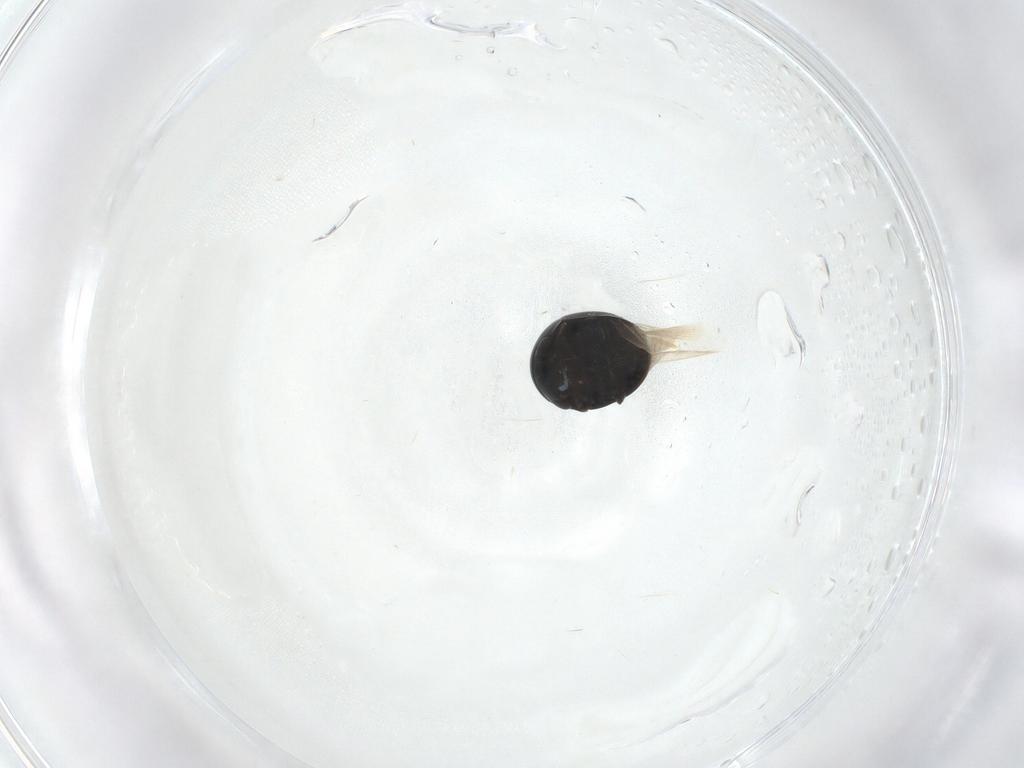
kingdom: Animalia
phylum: Arthropoda
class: Insecta
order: Coleoptera
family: Cybocephalidae
